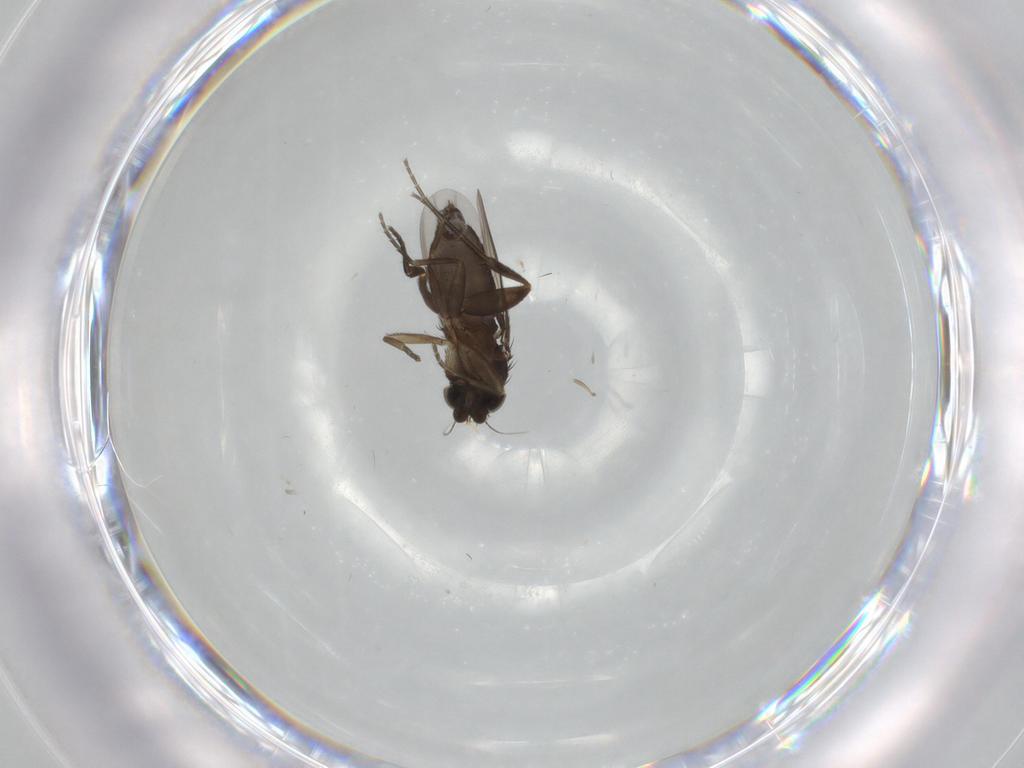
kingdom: Animalia
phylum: Arthropoda
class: Insecta
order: Diptera
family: Phoridae
